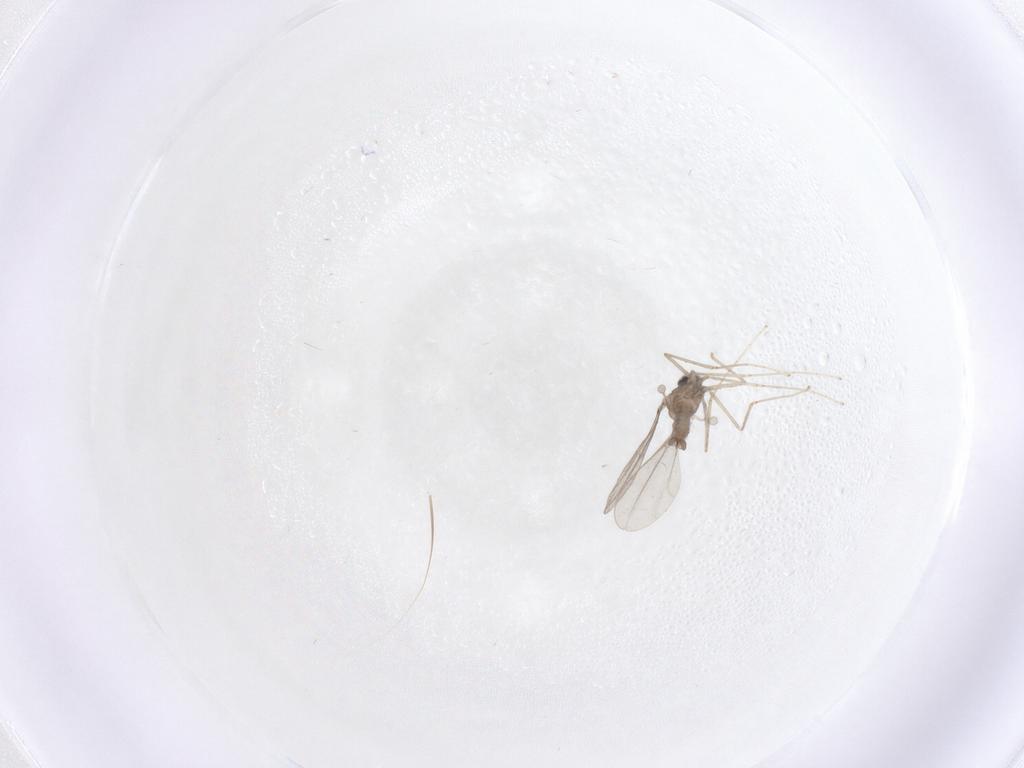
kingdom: Animalia
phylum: Arthropoda
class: Insecta
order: Diptera
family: Cecidomyiidae
